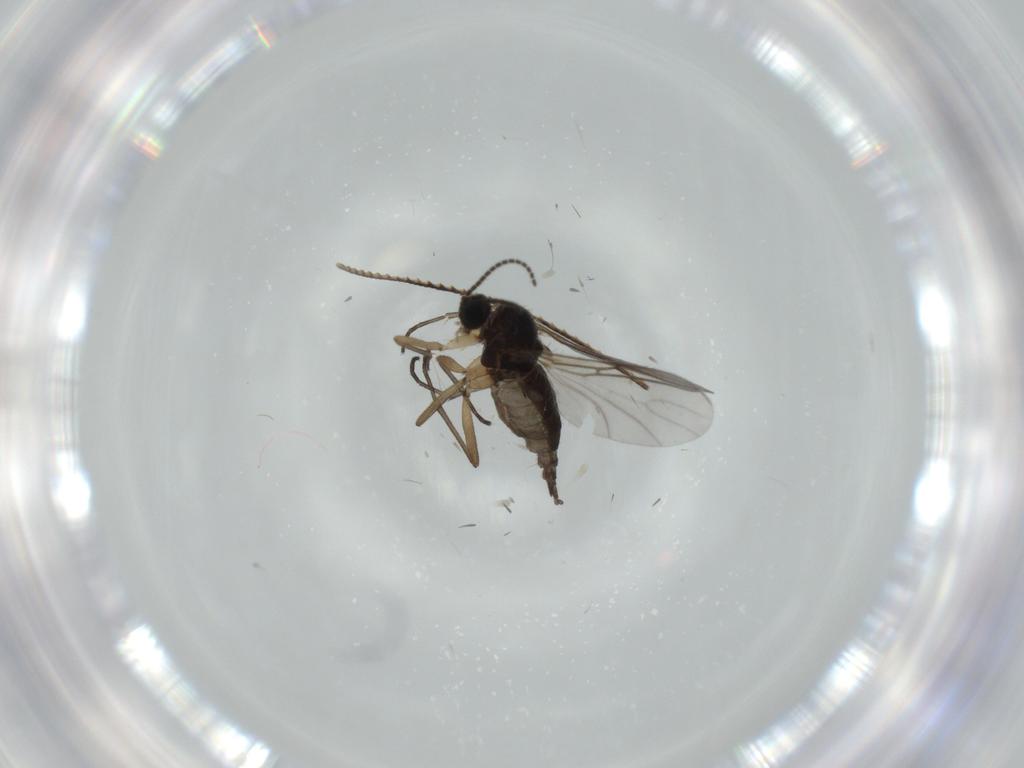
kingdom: Animalia
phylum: Arthropoda
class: Insecta
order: Diptera
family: Sciaridae
